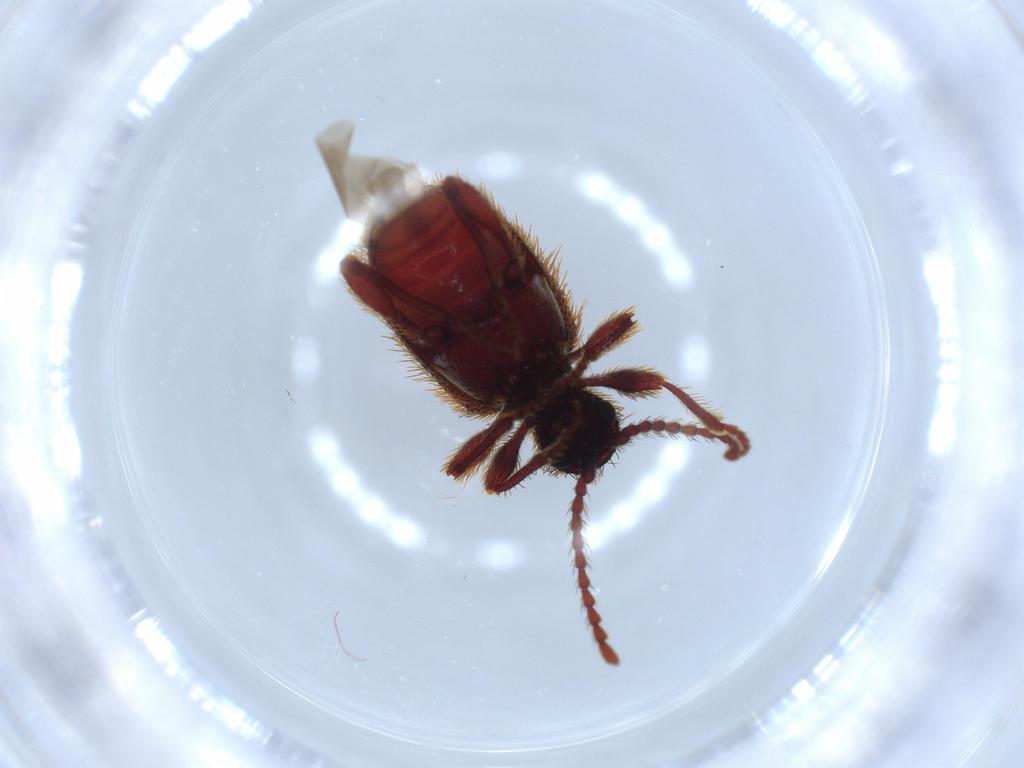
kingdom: Animalia
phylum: Arthropoda
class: Insecta
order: Coleoptera
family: Ptinidae
